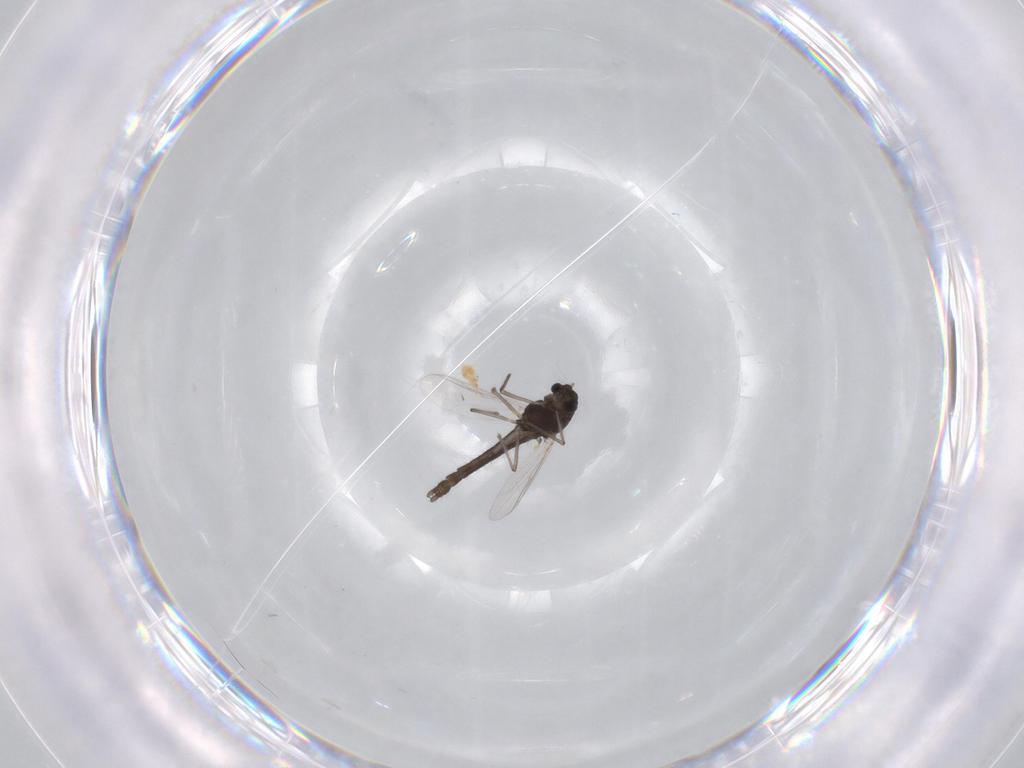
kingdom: Animalia
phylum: Arthropoda
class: Insecta
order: Diptera
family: Chironomidae
